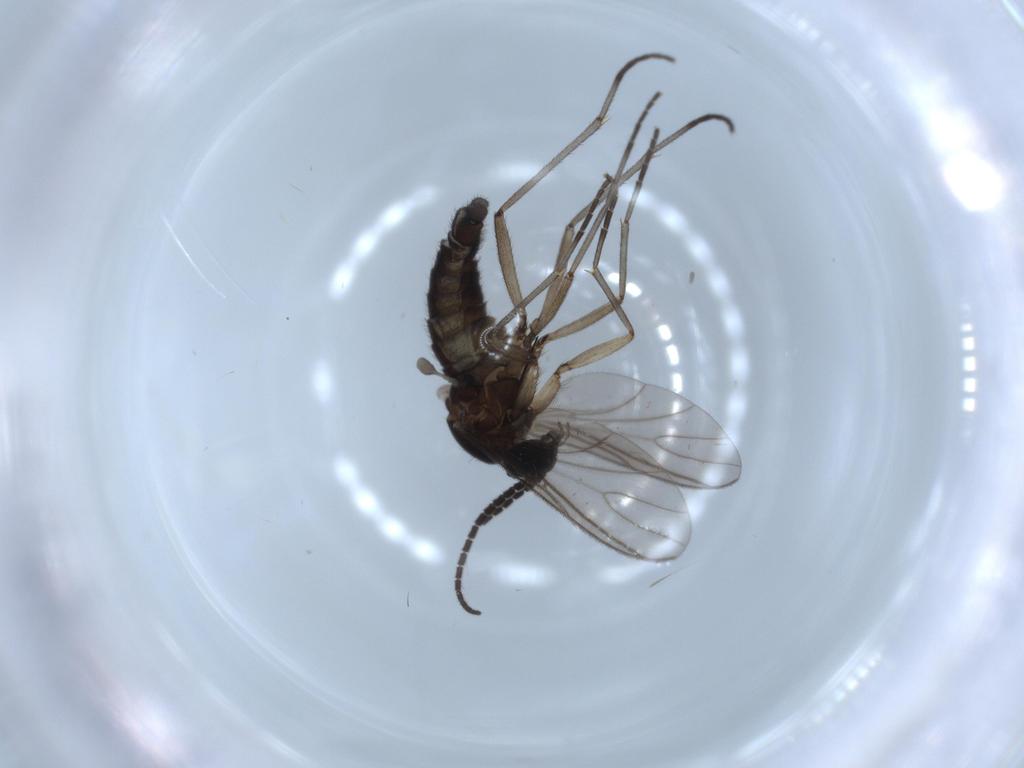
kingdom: Animalia
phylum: Arthropoda
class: Insecta
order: Diptera
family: Sciaridae
